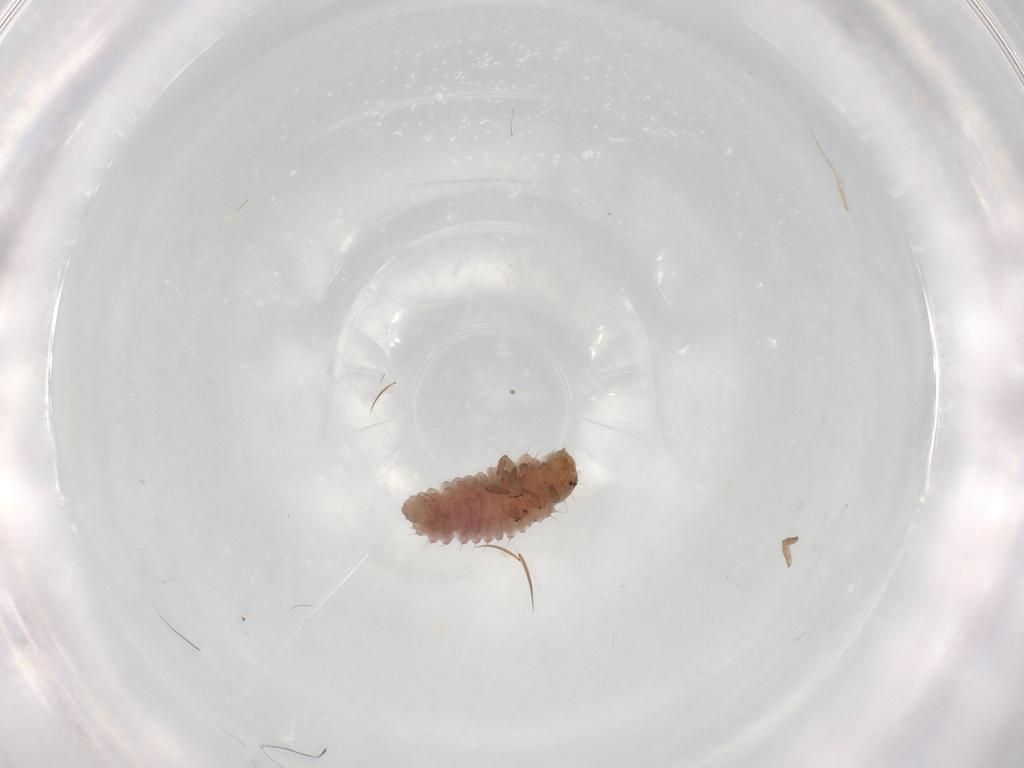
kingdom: Animalia
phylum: Arthropoda
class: Insecta
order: Coleoptera
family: Coccinellidae
